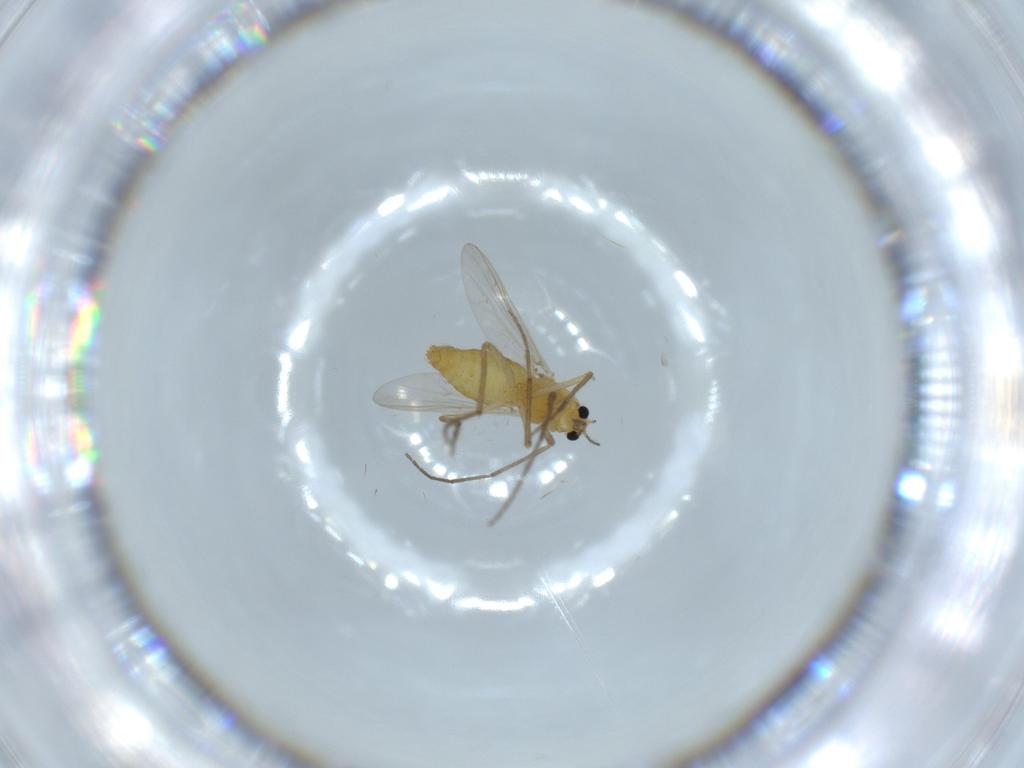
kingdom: Animalia
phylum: Arthropoda
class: Insecta
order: Diptera
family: Chironomidae
